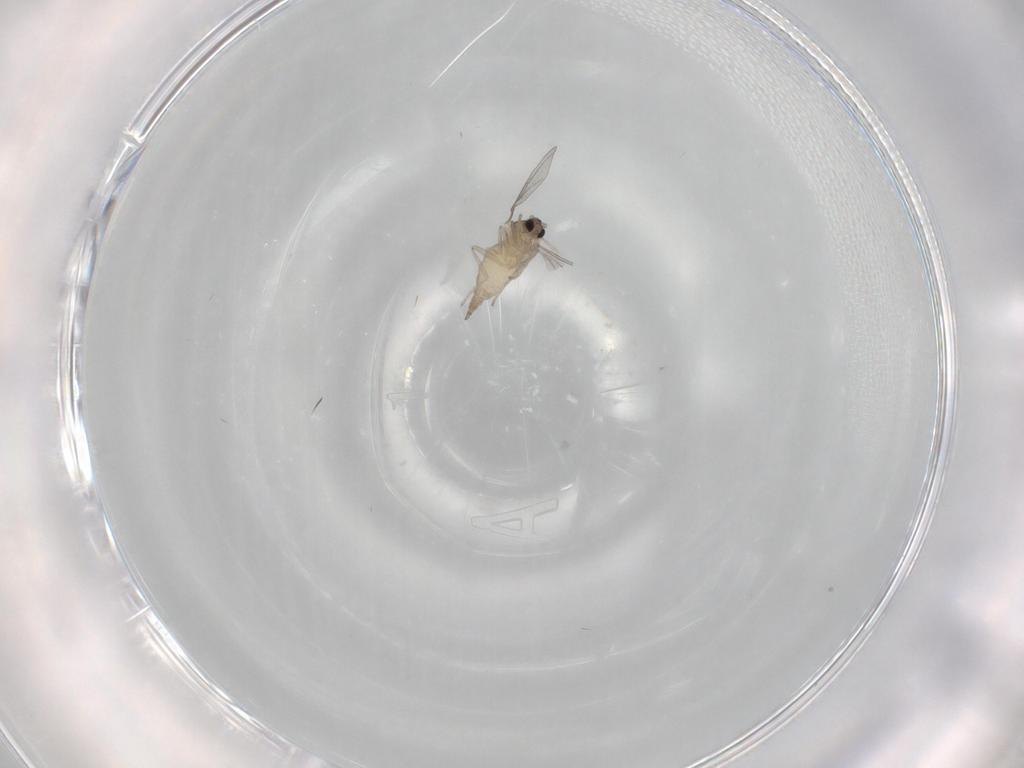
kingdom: Animalia
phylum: Arthropoda
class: Insecta
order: Diptera
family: Cecidomyiidae
